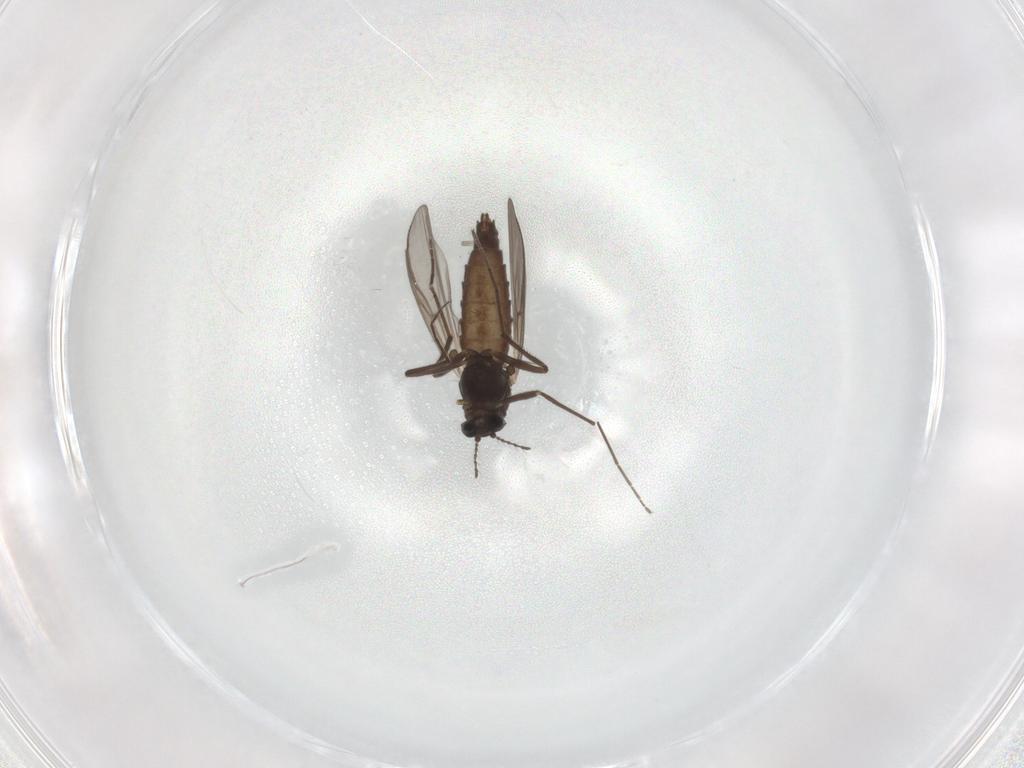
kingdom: Animalia
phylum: Arthropoda
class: Insecta
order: Diptera
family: Chironomidae
